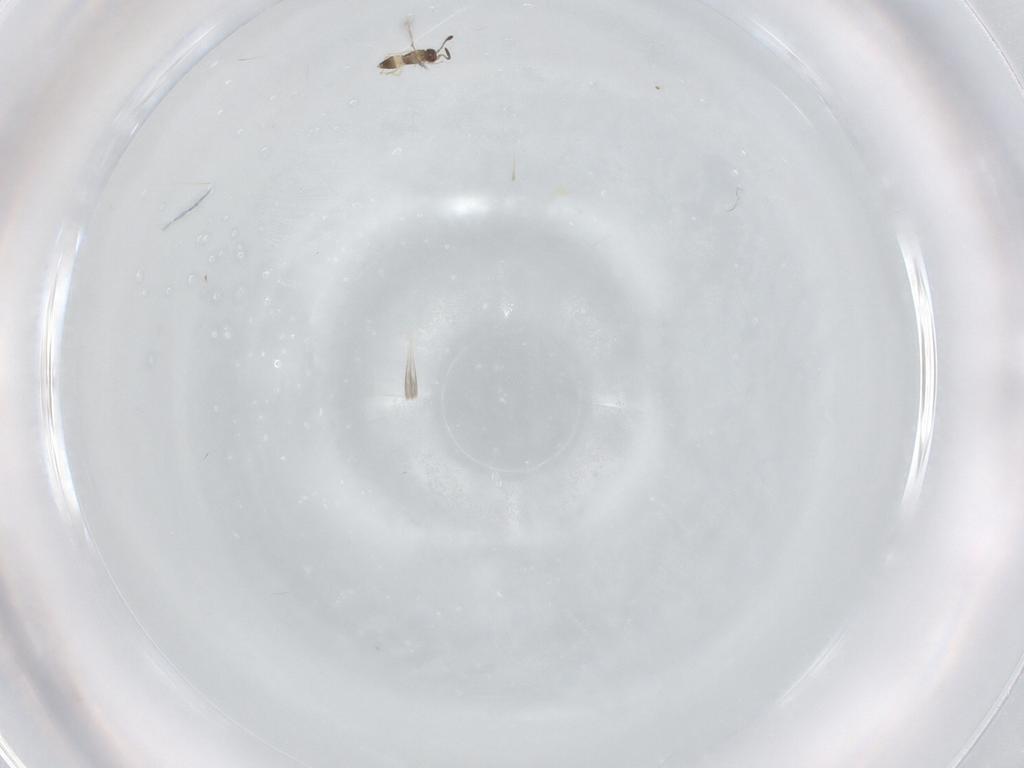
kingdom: Animalia
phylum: Arthropoda
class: Insecta
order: Hymenoptera
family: Mymaridae
